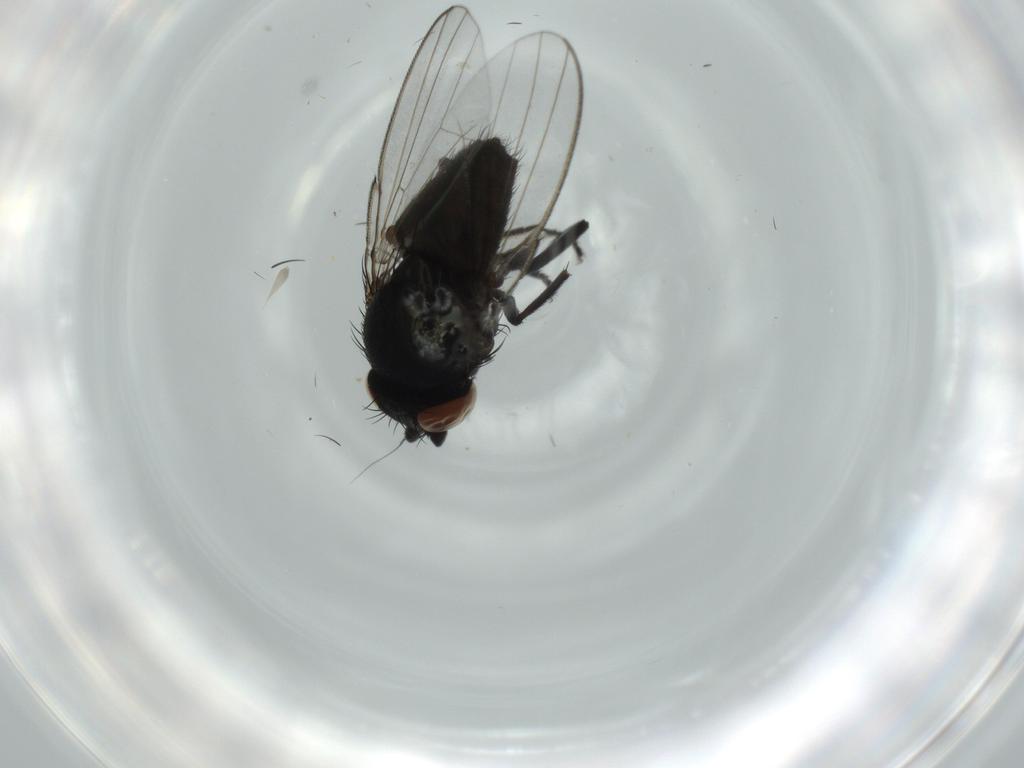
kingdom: Animalia
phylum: Arthropoda
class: Insecta
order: Diptera
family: Milichiidae
